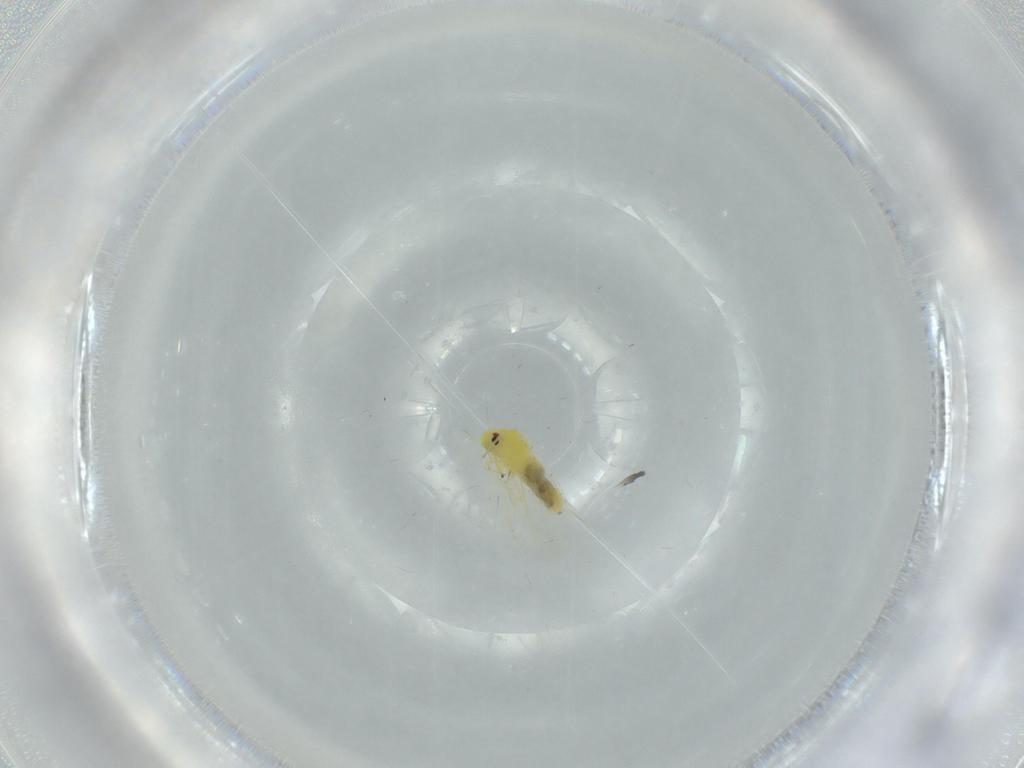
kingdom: Animalia
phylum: Arthropoda
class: Insecta
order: Hemiptera
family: Aleyrodidae
